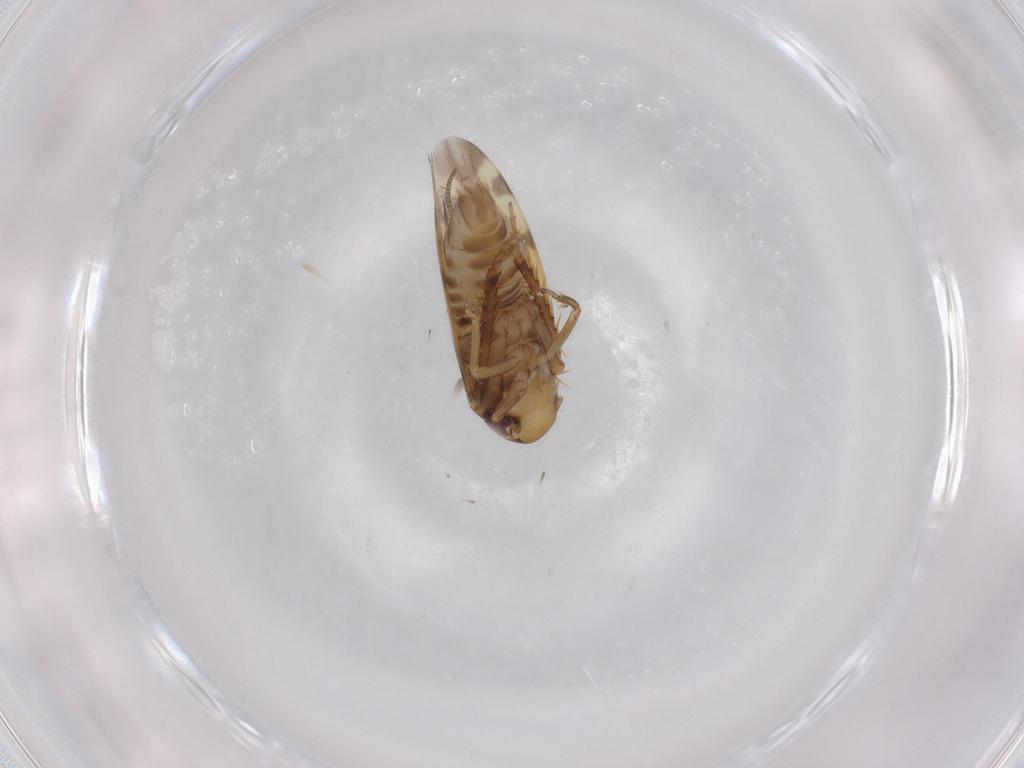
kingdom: Animalia
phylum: Arthropoda
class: Insecta
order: Hemiptera
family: Cicadellidae
